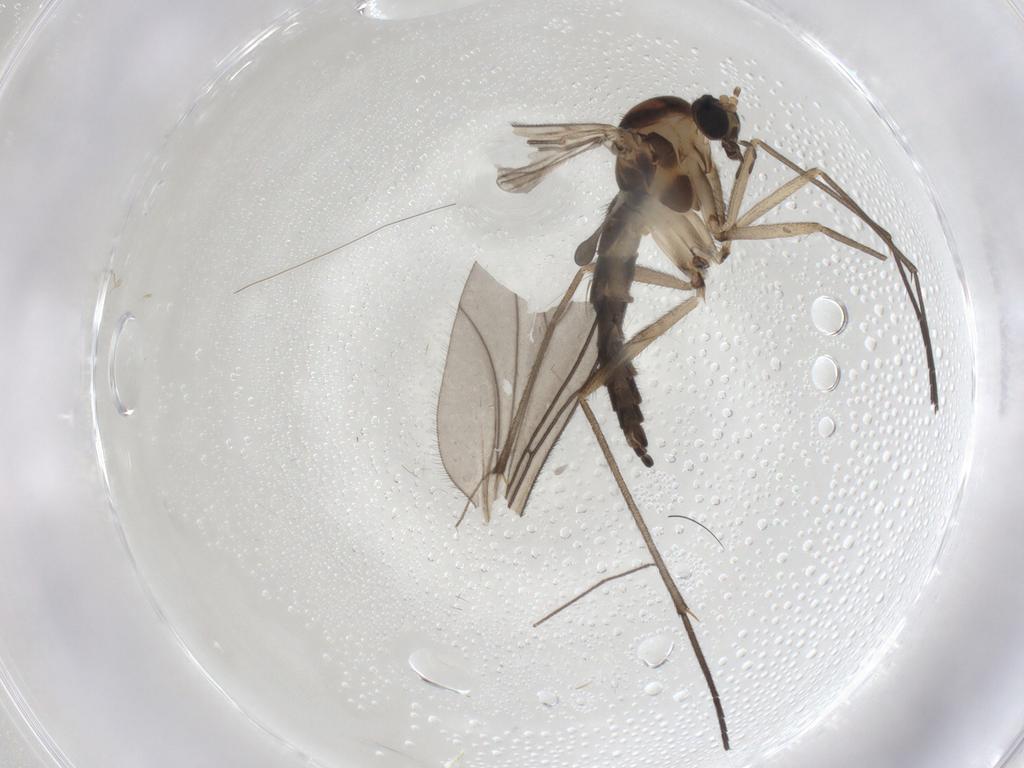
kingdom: Animalia
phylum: Arthropoda
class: Insecta
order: Diptera
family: Sciaridae
